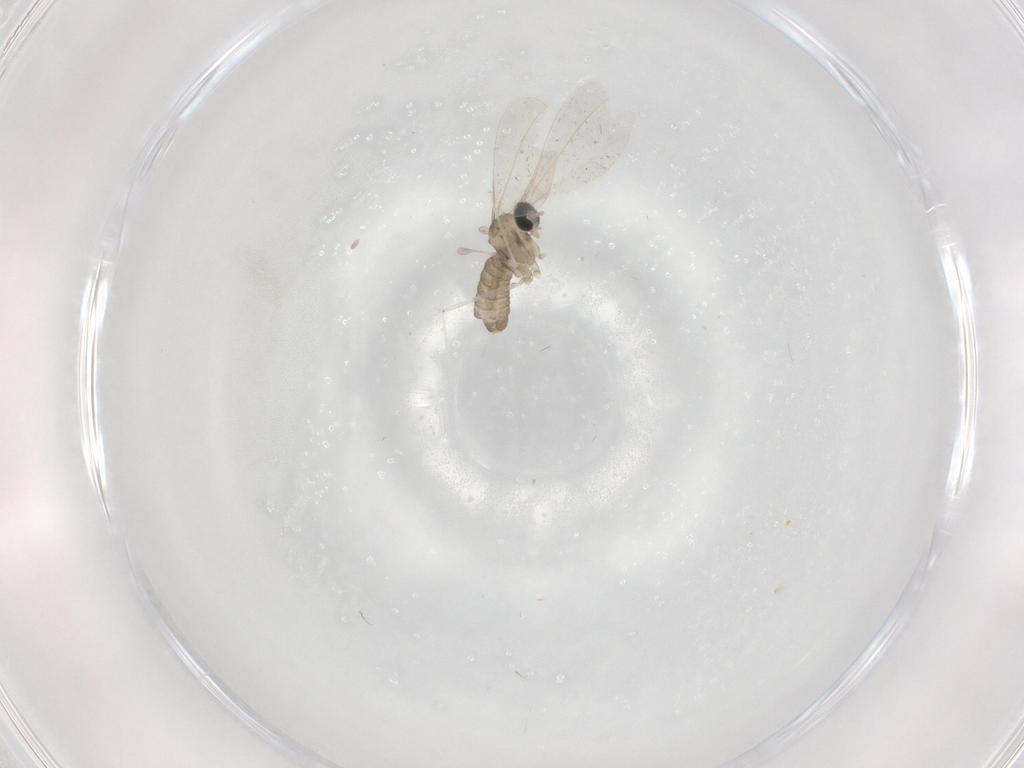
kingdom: Animalia
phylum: Arthropoda
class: Insecta
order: Diptera
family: Cecidomyiidae
